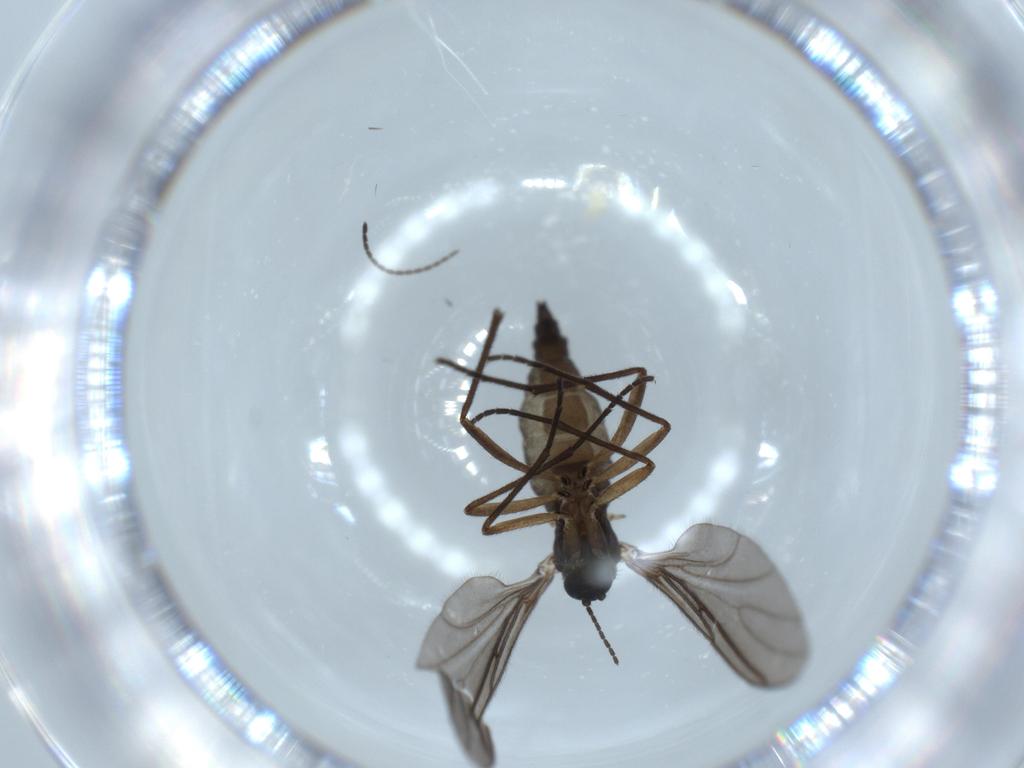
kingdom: Animalia
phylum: Arthropoda
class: Insecta
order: Diptera
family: Sciaridae
